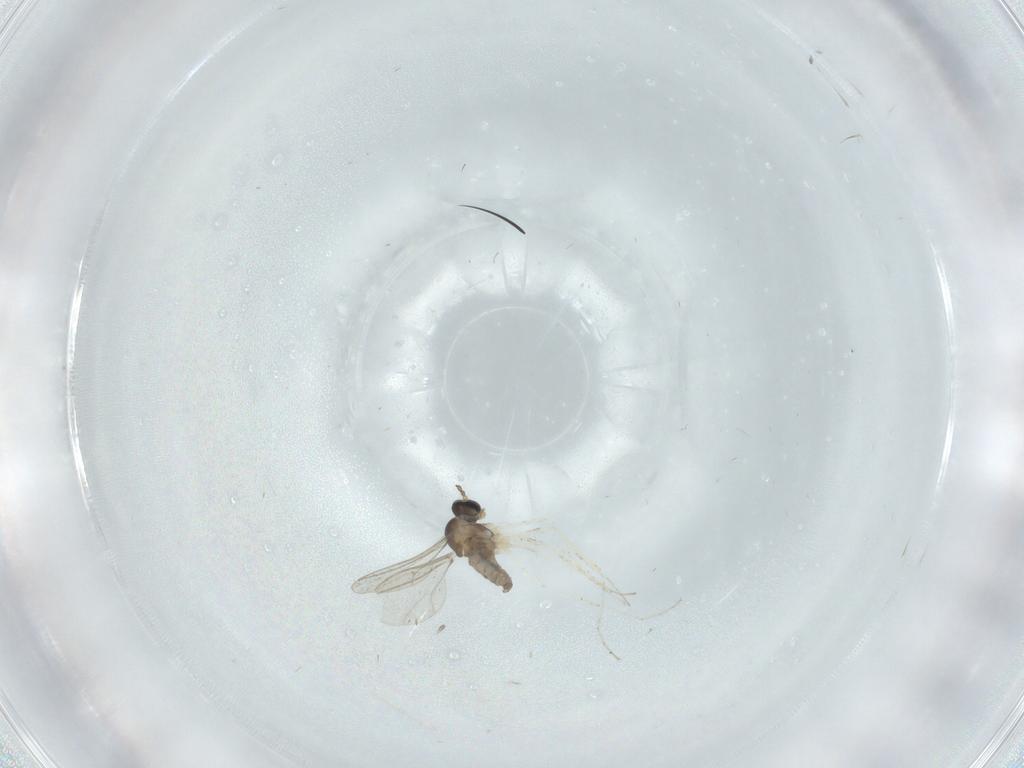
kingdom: Animalia
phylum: Arthropoda
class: Insecta
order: Diptera
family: Cecidomyiidae
